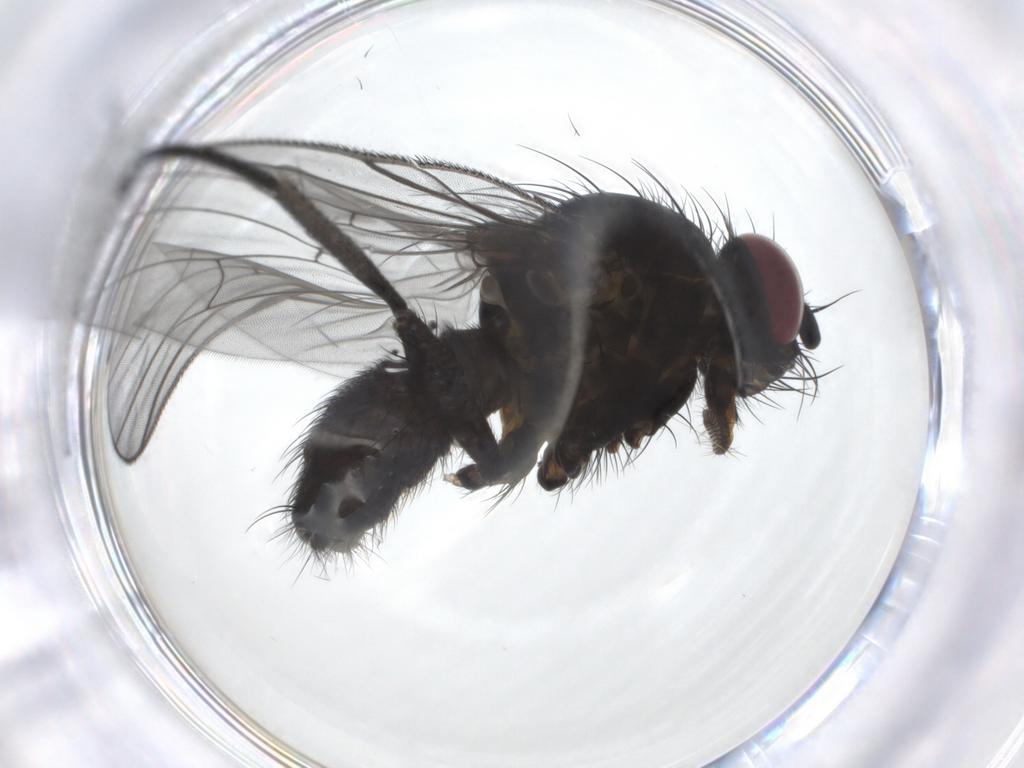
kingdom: Animalia
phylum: Arthropoda
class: Insecta
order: Diptera
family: Fannia
